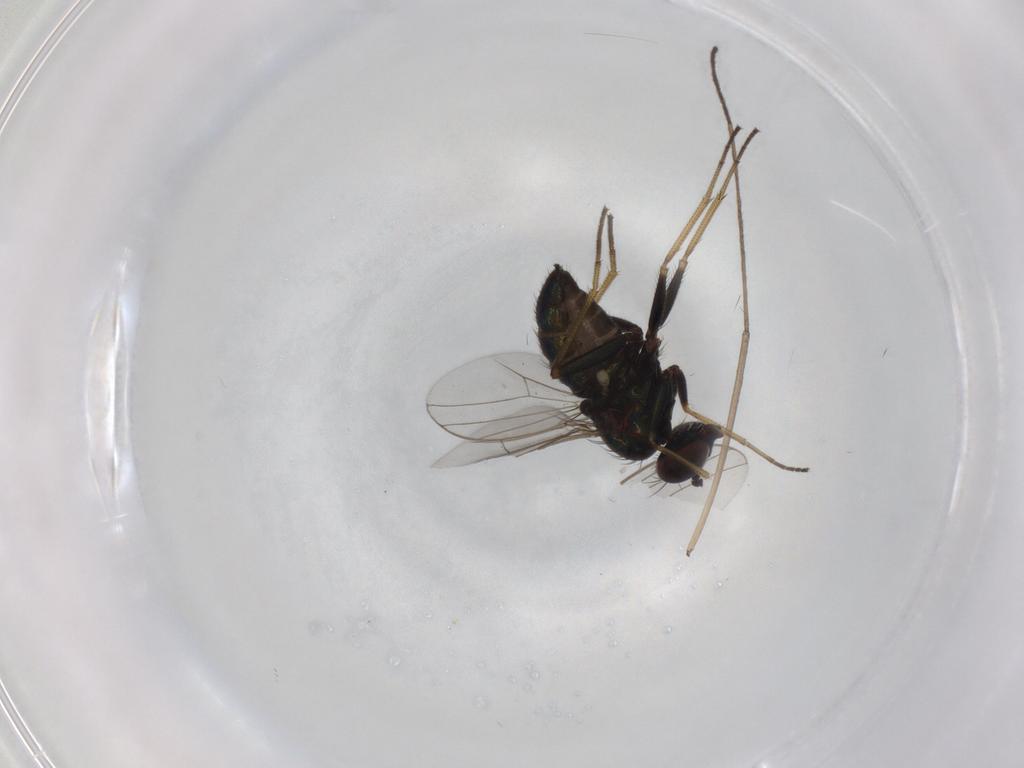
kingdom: Animalia
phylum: Arthropoda
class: Insecta
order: Diptera
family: Dolichopodidae
